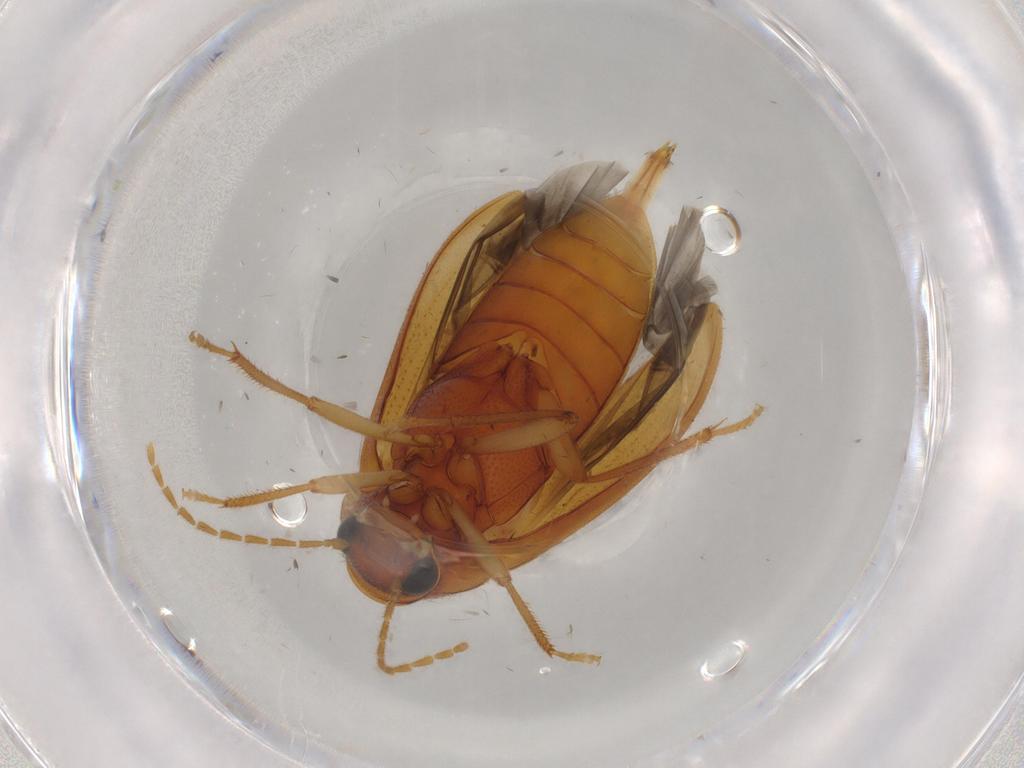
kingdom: Animalia
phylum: Arthropoda
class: Insecta
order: Coleoptera
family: Ptilodactylidae
